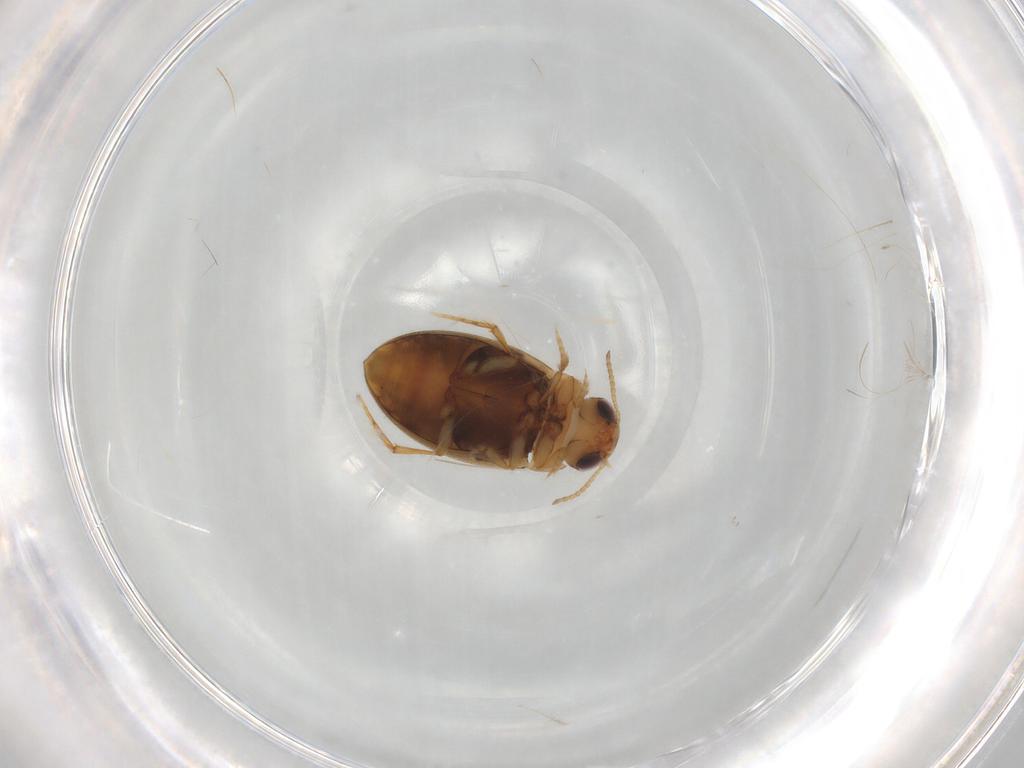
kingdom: Animalia
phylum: Arthropoda
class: Insecta
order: Coleoptera
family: Dytiscidae
